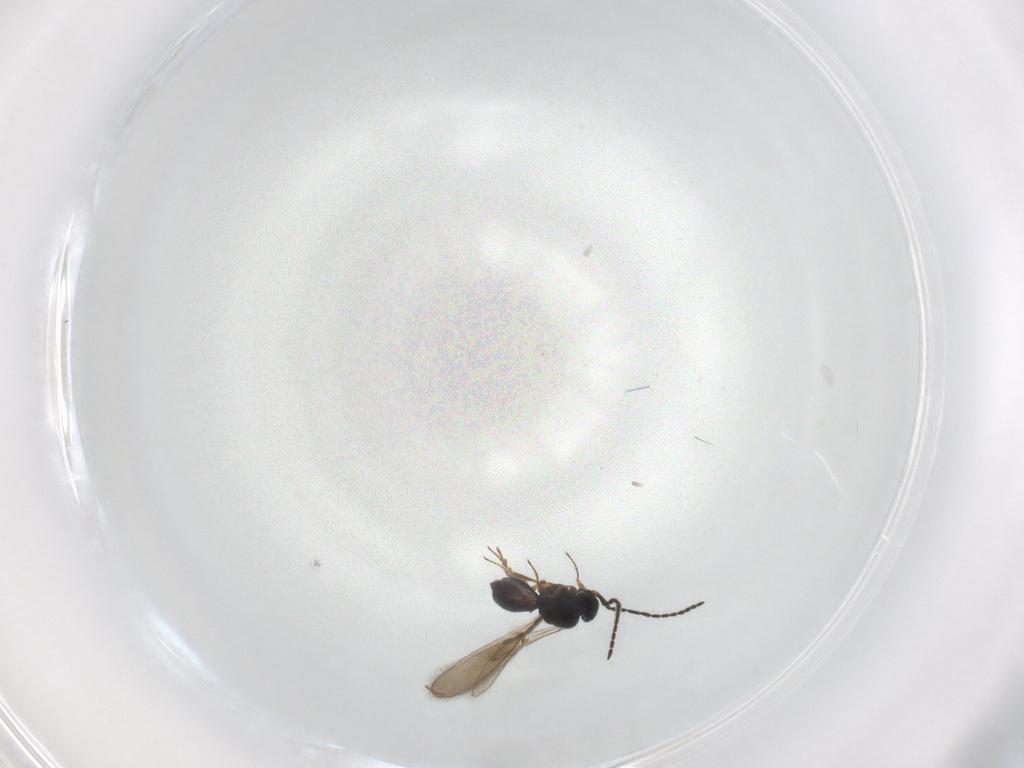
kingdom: Animalia
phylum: Arthropoda
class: Insecta
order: Hymenoptera
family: Scelionidae
